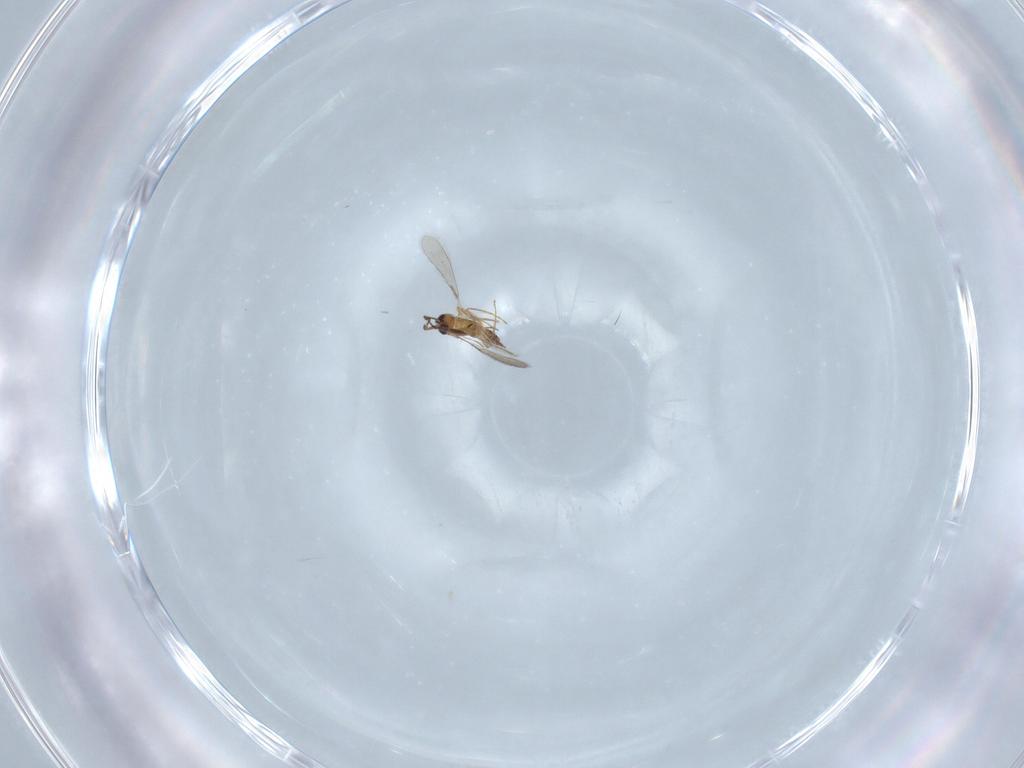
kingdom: Animalia
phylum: Arthropoda
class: Insecta
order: Hymenoptera
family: Mymaridae
